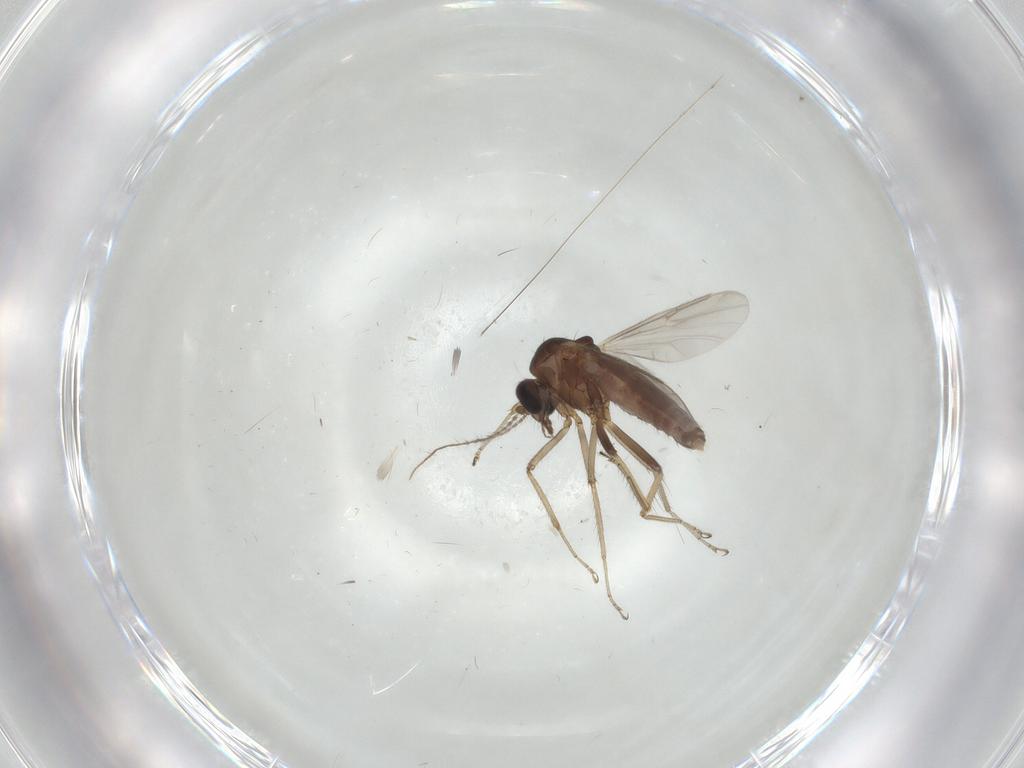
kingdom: Animalia
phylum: Arthropoda
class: Insecta
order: Diptera
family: Ceratopogonidae
